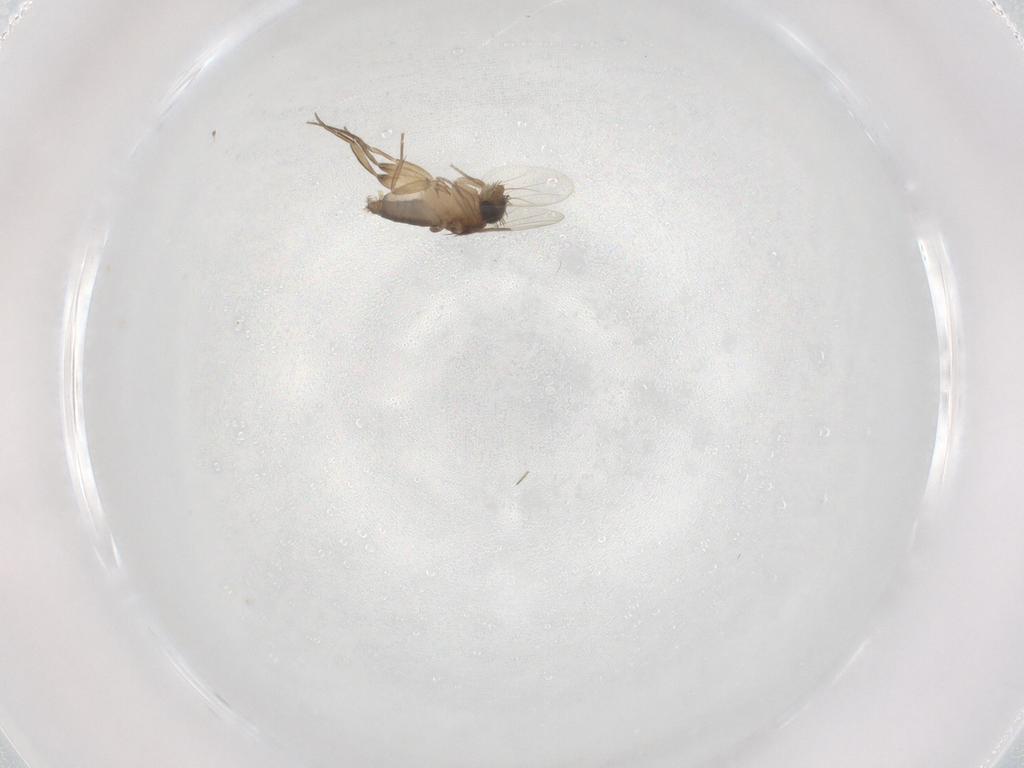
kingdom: Animalia
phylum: Arthropoda
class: Insecta
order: Diptera
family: Phoridae
